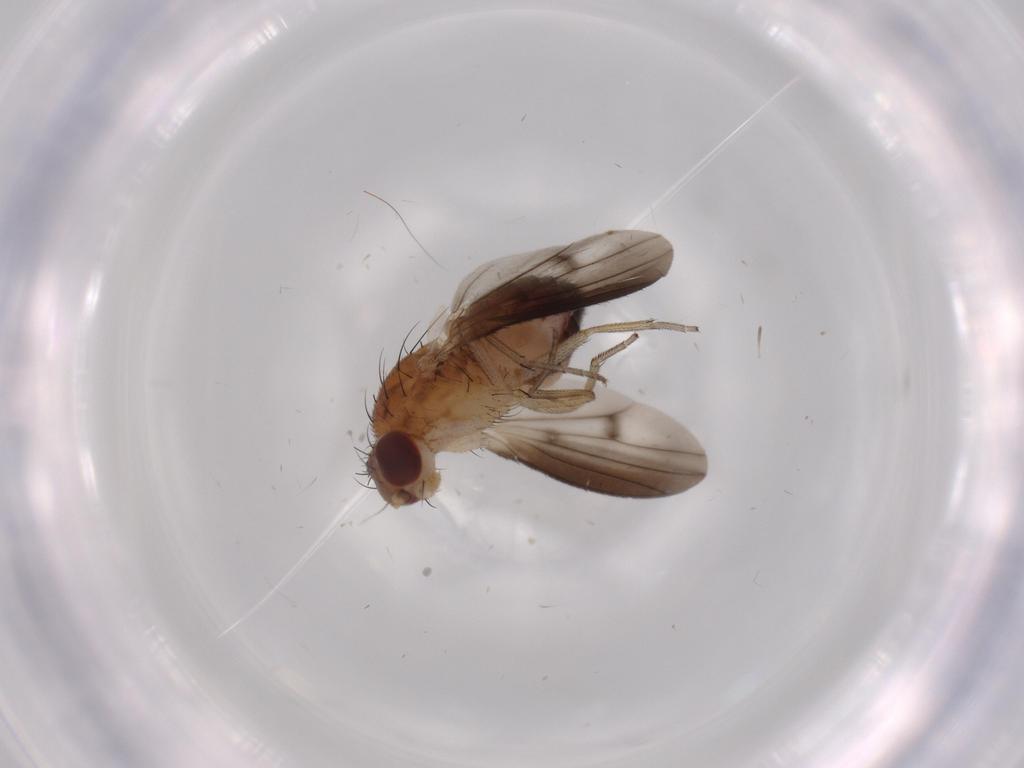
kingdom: Animalia
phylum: Arthropoda
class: Insecta
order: Diptera
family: Heleomyzidae
